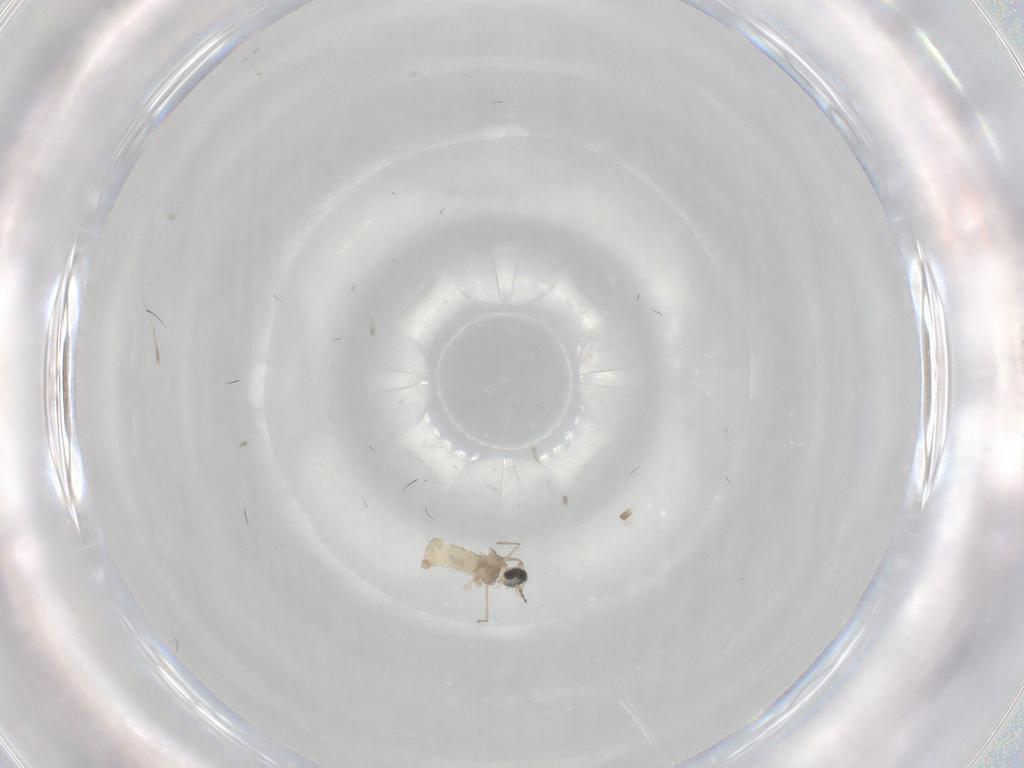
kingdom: Animalia
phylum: Arthropoda
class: Insecta
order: Diptera
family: Phoridae
